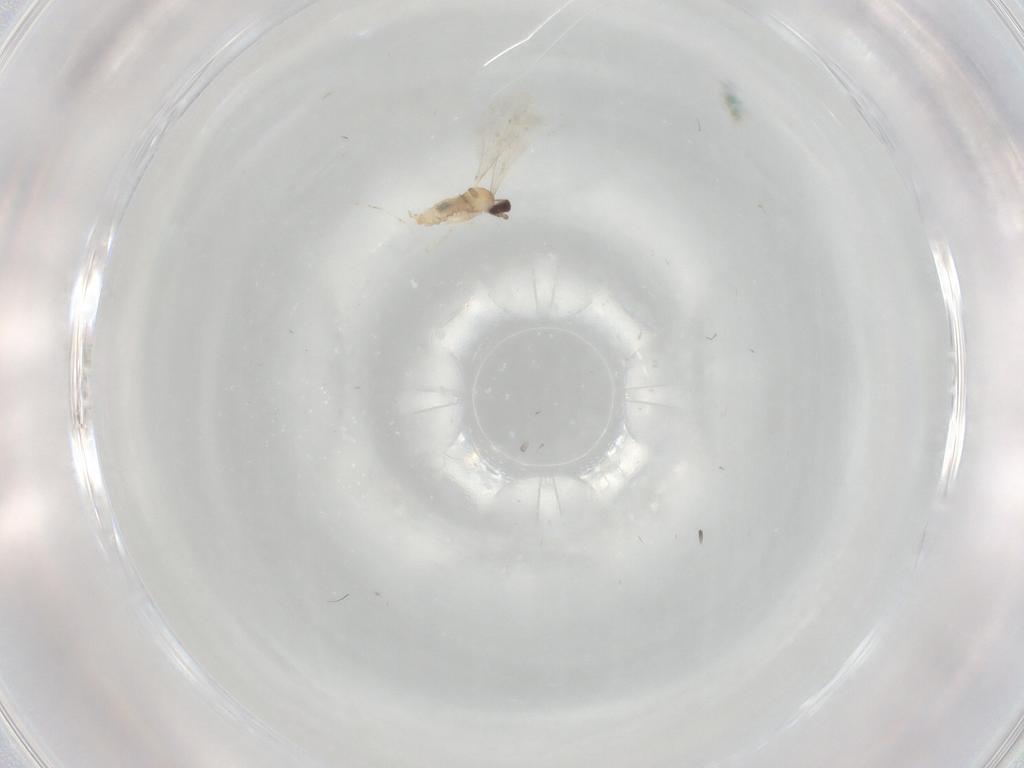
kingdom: Animalia
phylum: Arthropoda
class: Insecta
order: Diptera
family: Cecidomyiidae
